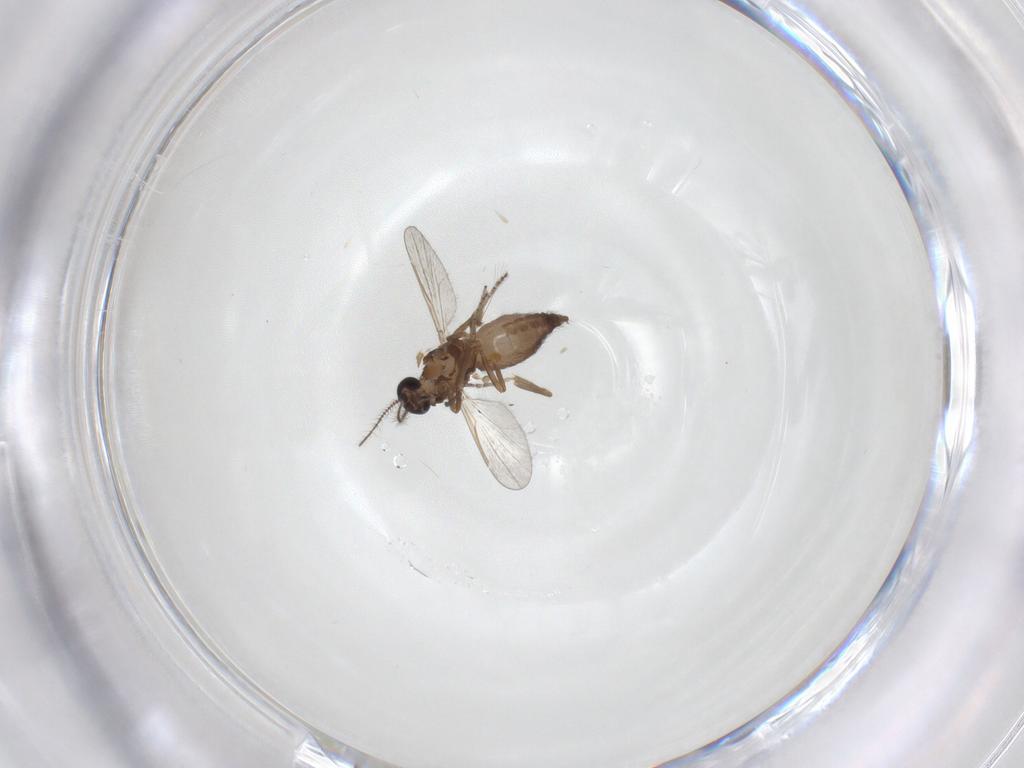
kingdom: Animalia
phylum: Arthropoda
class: Insecta
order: Diptera
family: Ceratopogonidae
